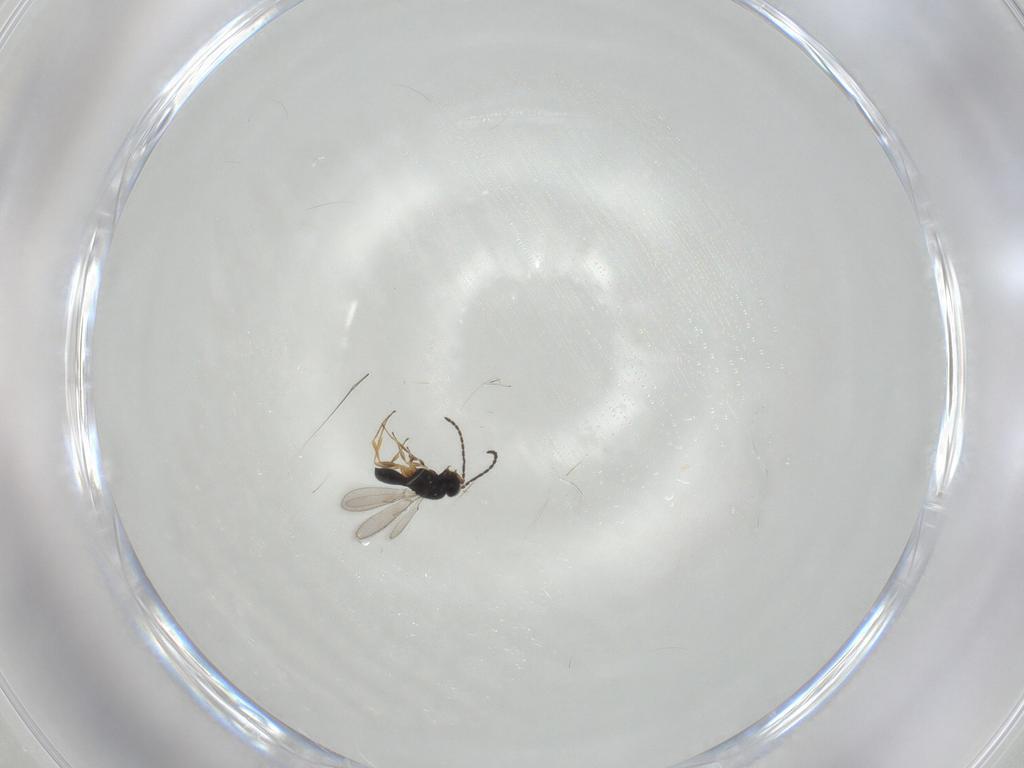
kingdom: Animalia
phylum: Arthropoda
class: Insecta
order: Hymenoptera
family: Scelionidae
